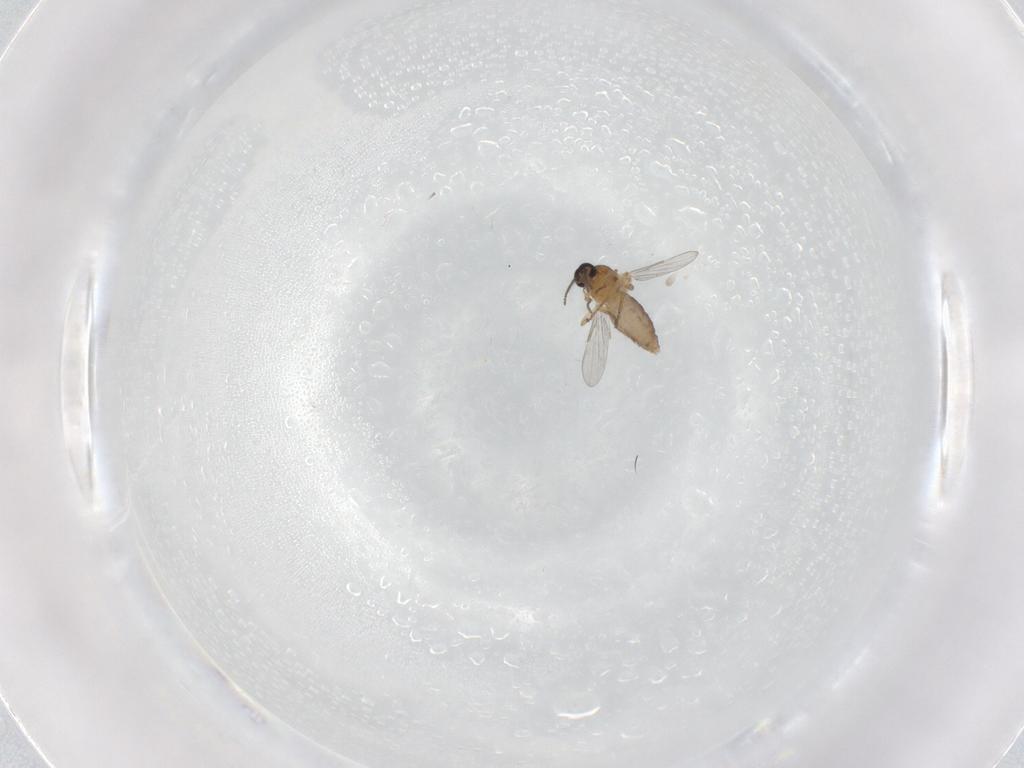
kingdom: Animalia
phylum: Arthropoda
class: Insecta
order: Diptera
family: Ceratopogonidae
